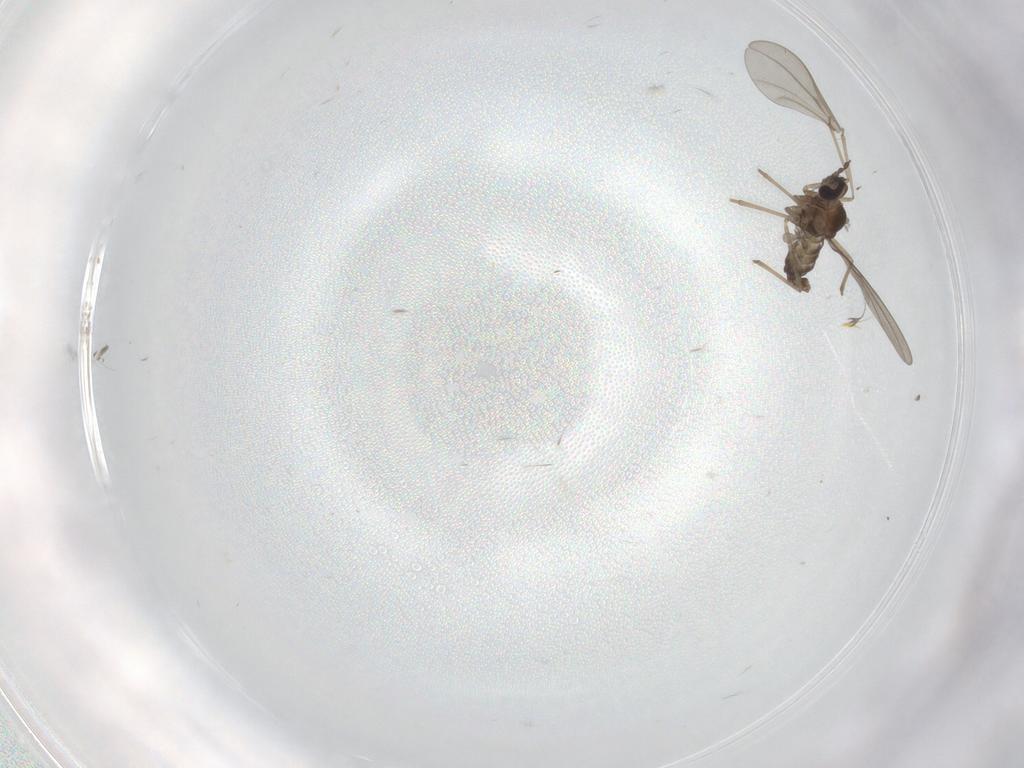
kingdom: Animalia
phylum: Arthropoda
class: Insecta
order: Diptera
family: Cecidomyiidae
